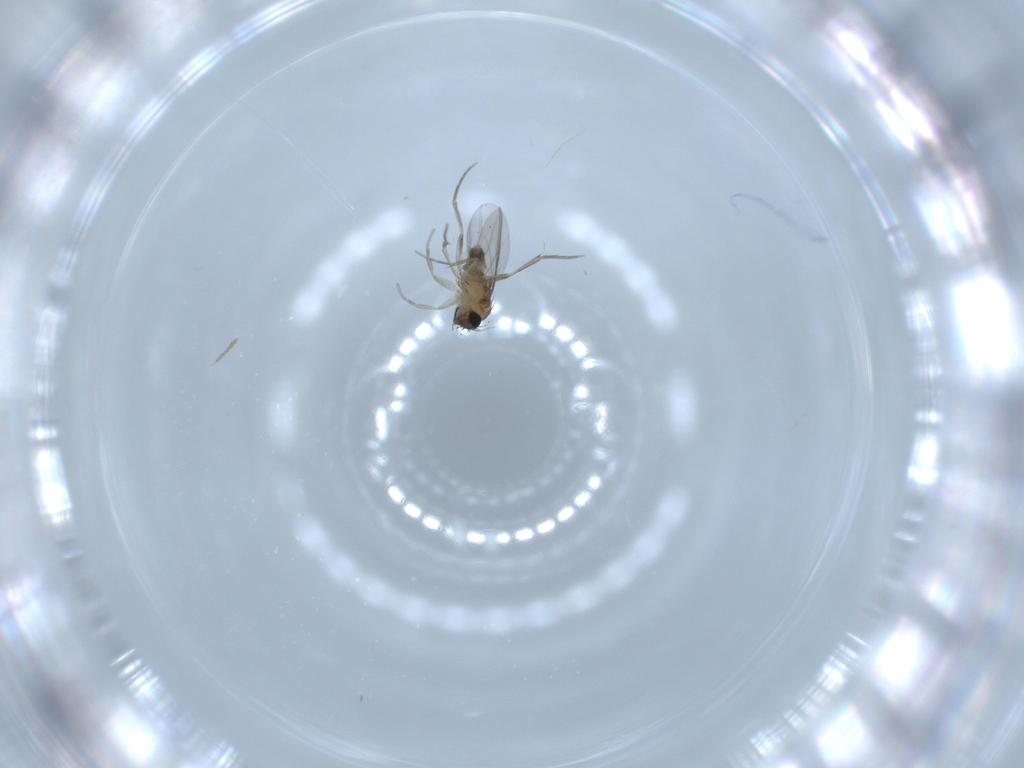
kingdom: Animalia
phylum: Arthropoda
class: Insecta
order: Diptera
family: Phoridae
